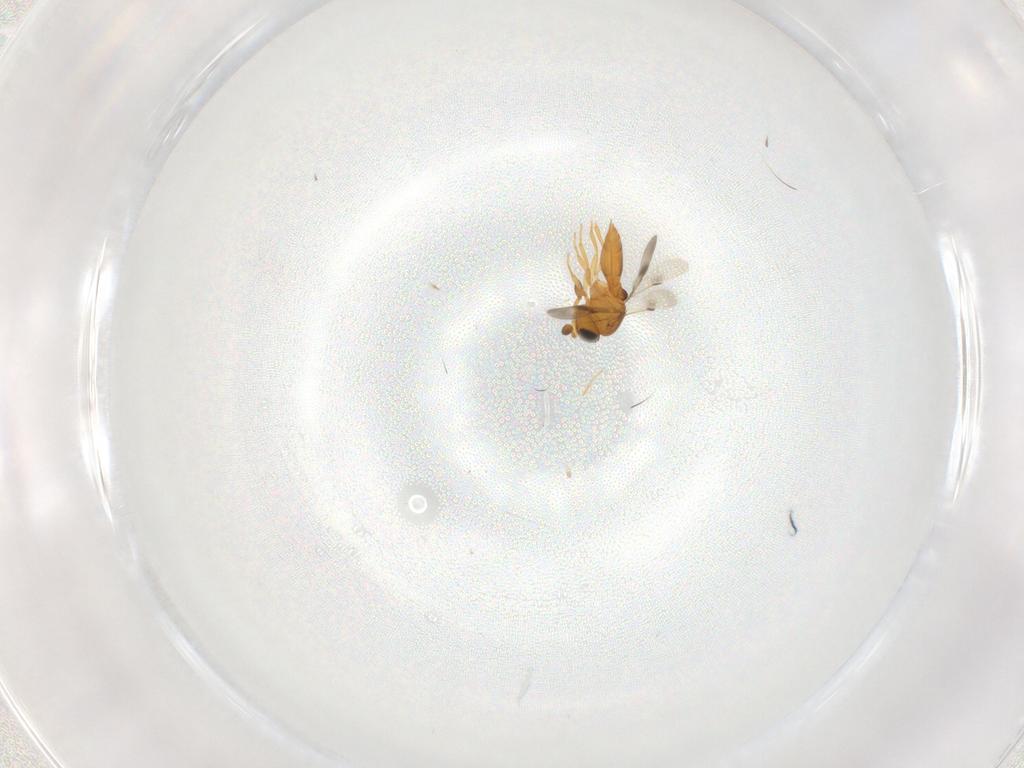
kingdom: Animalia
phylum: Arthropoda
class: Insecta
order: Hymenoptera
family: Scelionidae
